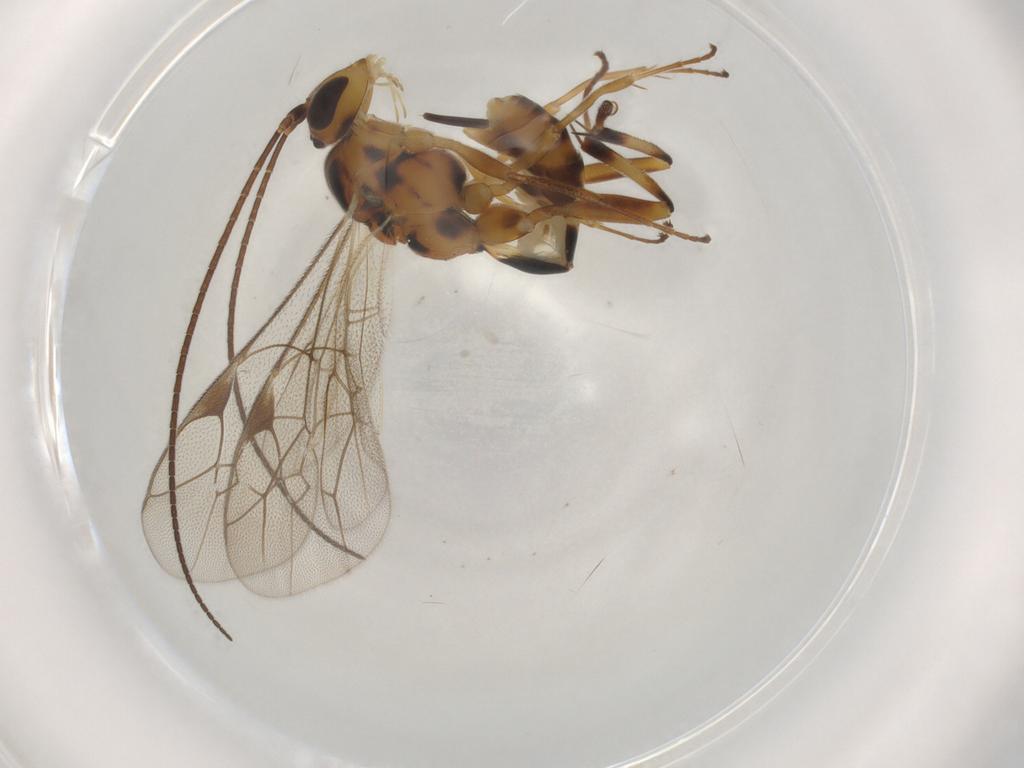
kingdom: Animalia
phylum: Arthropoda
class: Insecta
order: Hymenoptera
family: Ichneumonidae
